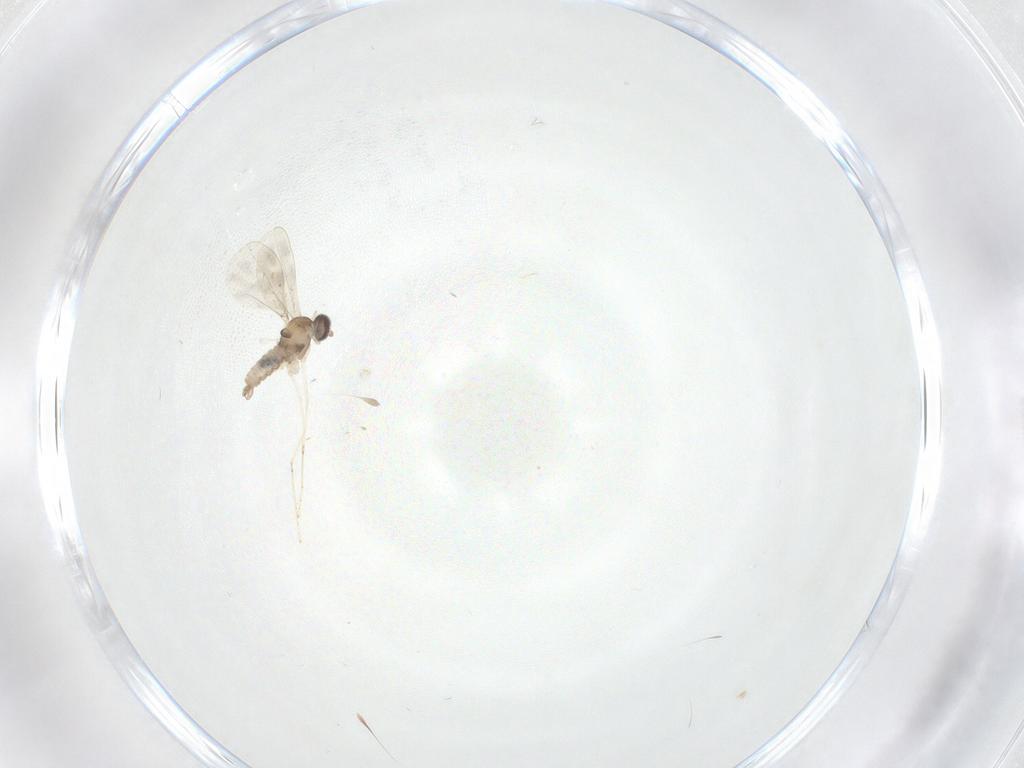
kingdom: Animalia
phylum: Arthropoda
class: Insecta
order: Diptera
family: Cecidomyiidae
